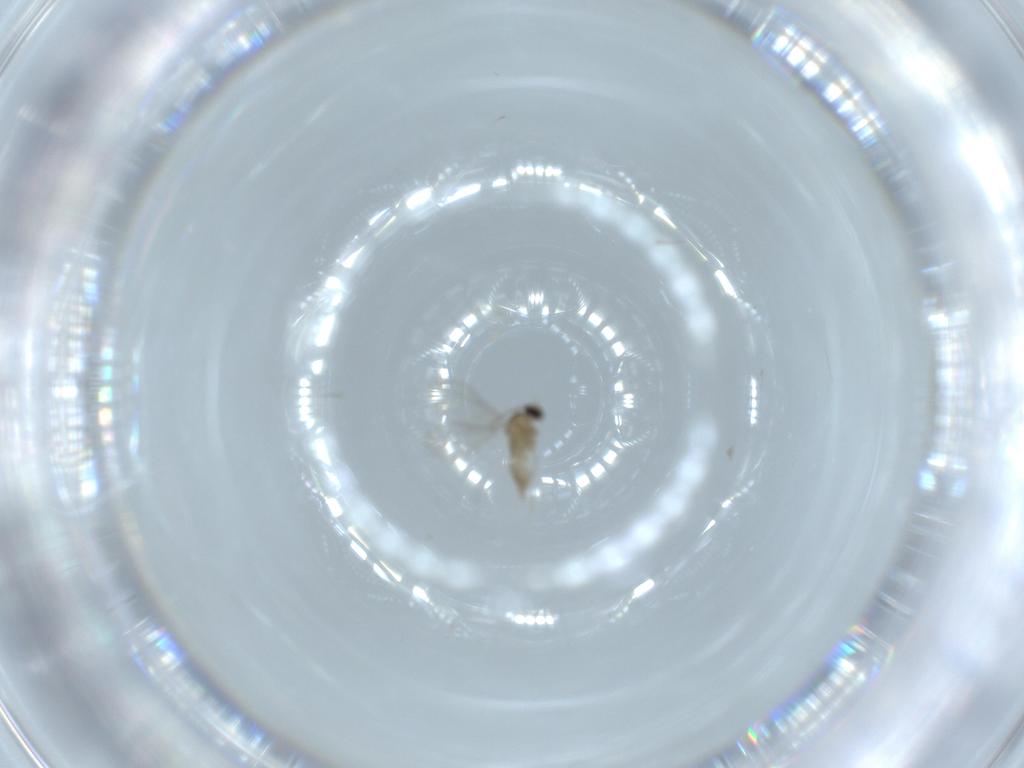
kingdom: Animalia
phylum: Arthropoda
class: Insecta
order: Diptera
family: Cecidomyiidae
